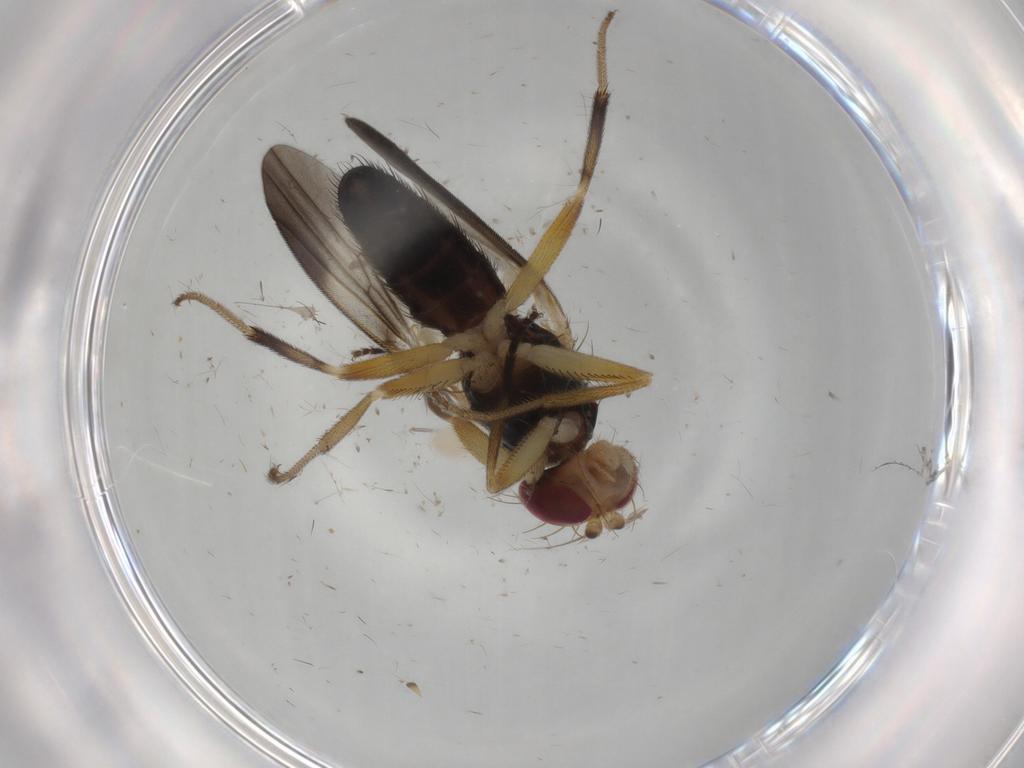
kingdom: Animalia
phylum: Arthropoda
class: Insecta
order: Diptera
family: Clusiidae
